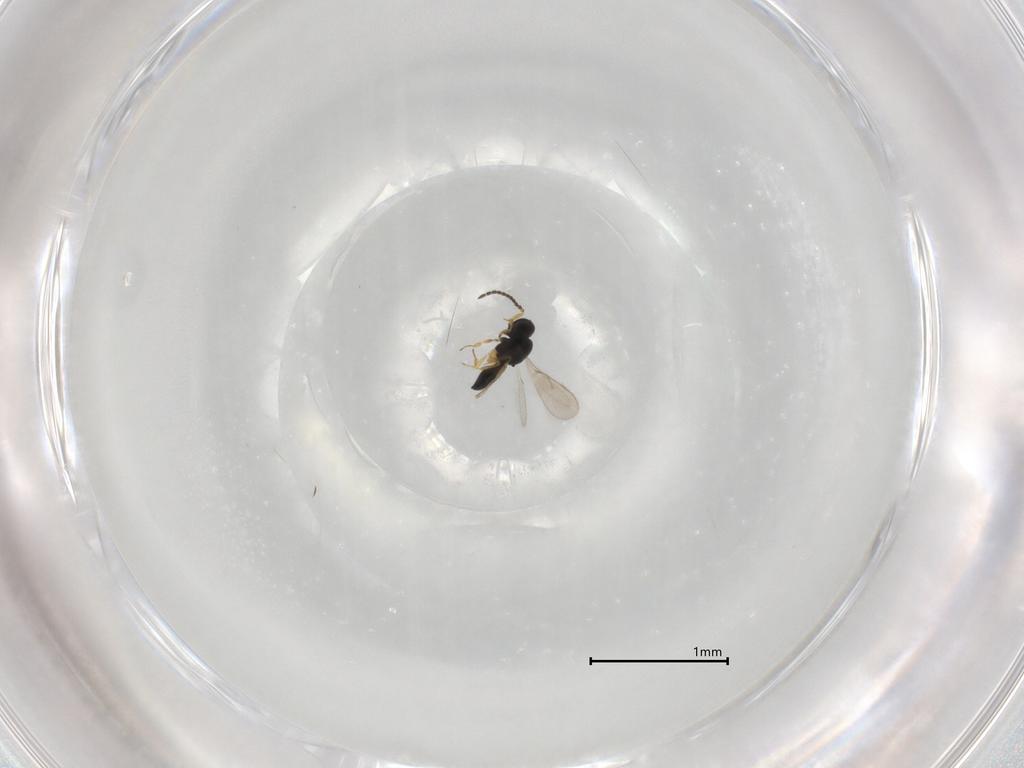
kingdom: Animalia
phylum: Arthropoda
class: Insecta
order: Hymenoptera
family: Scelionidae
